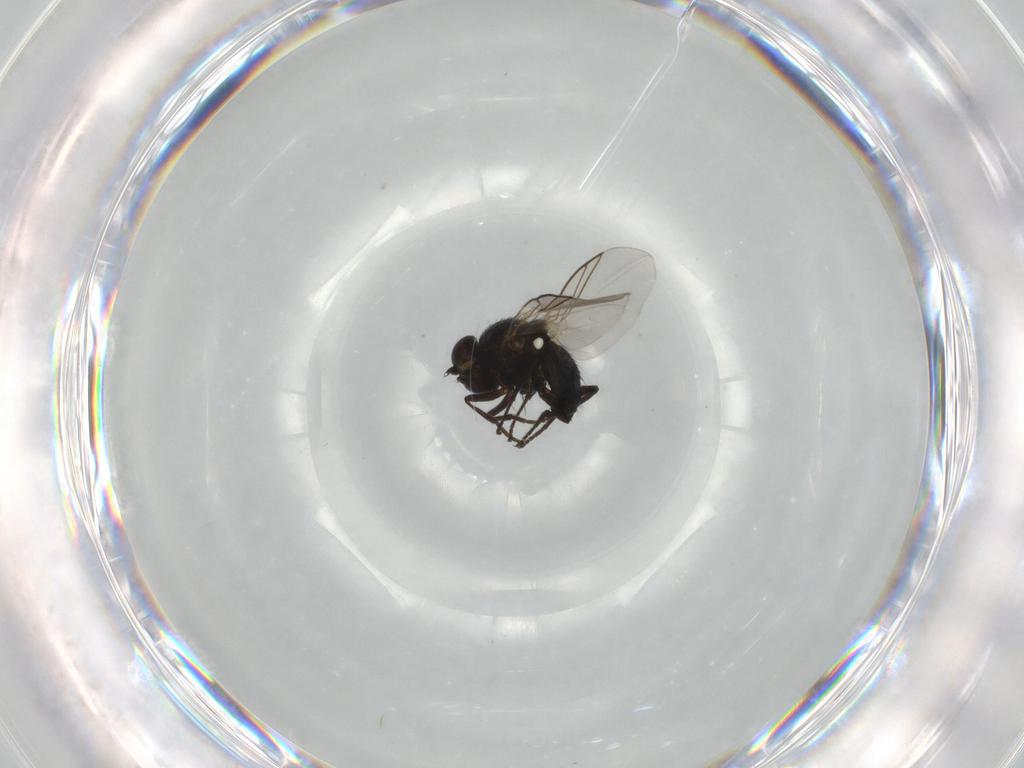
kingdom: Animalia
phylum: Arthropoda
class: Insecta
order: Diptera
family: Agromyzidae
